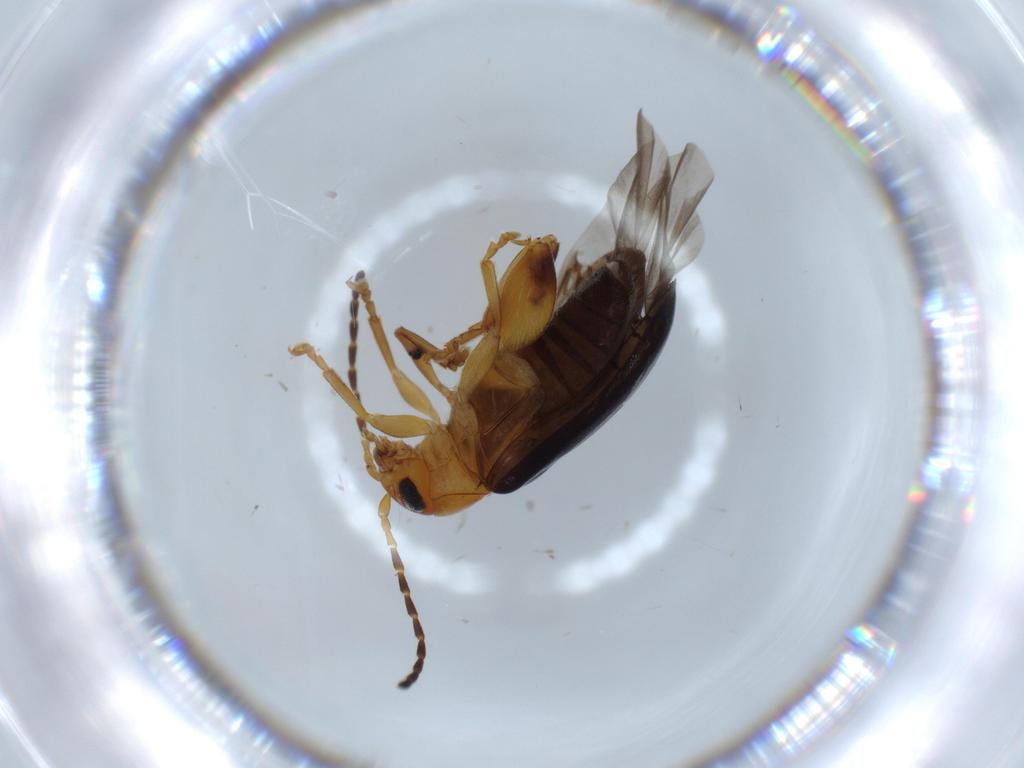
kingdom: Animalia
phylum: Arthropoda
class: Insecta
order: Coleoptera
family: Chrysomelidae
